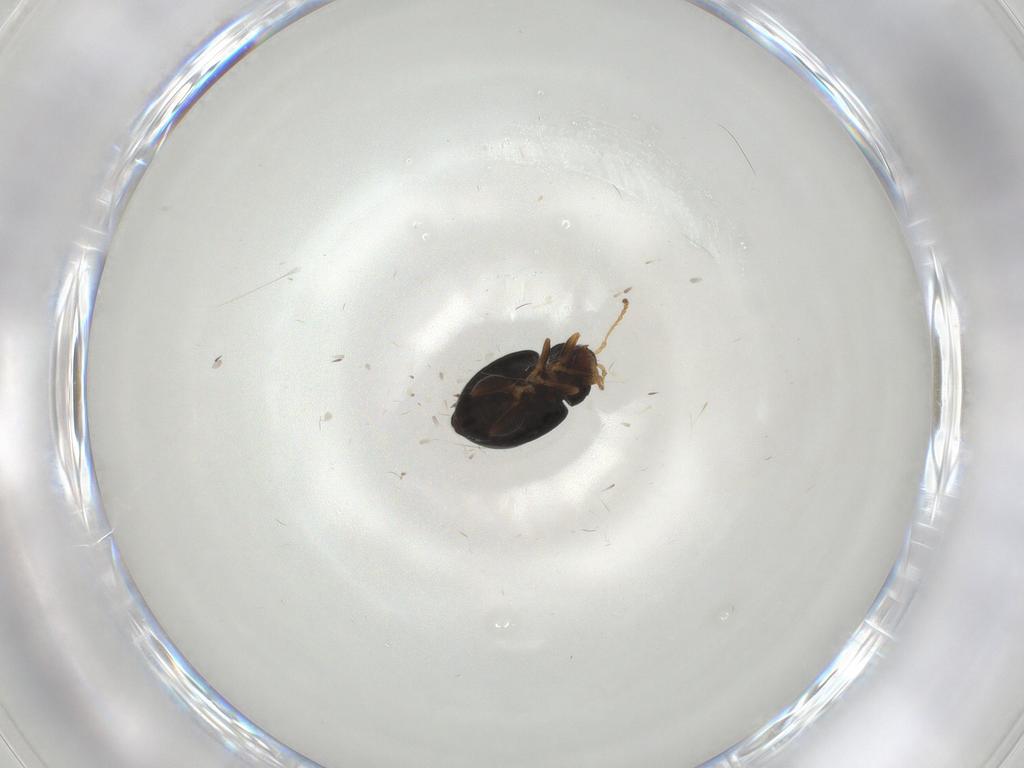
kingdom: Animalia
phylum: Arthropoda
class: Insecta
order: Coleoptera
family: Chrysomelidae
